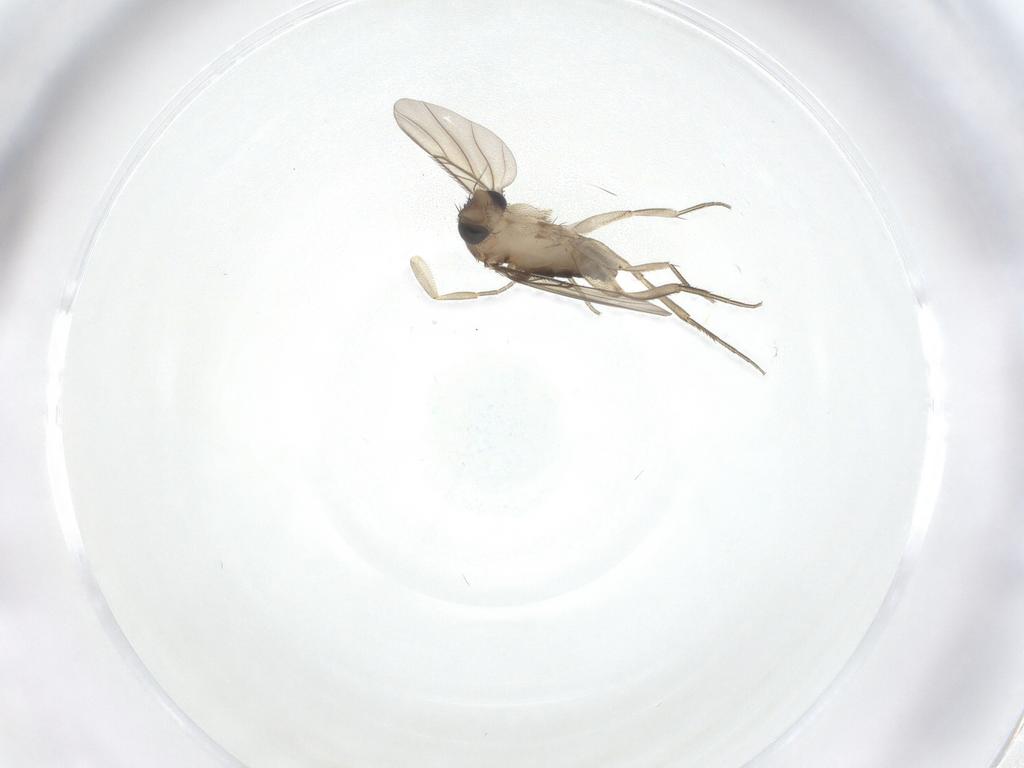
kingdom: Animalia
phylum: Arthropoda
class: Insecta
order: Diptera
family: Phoridae
